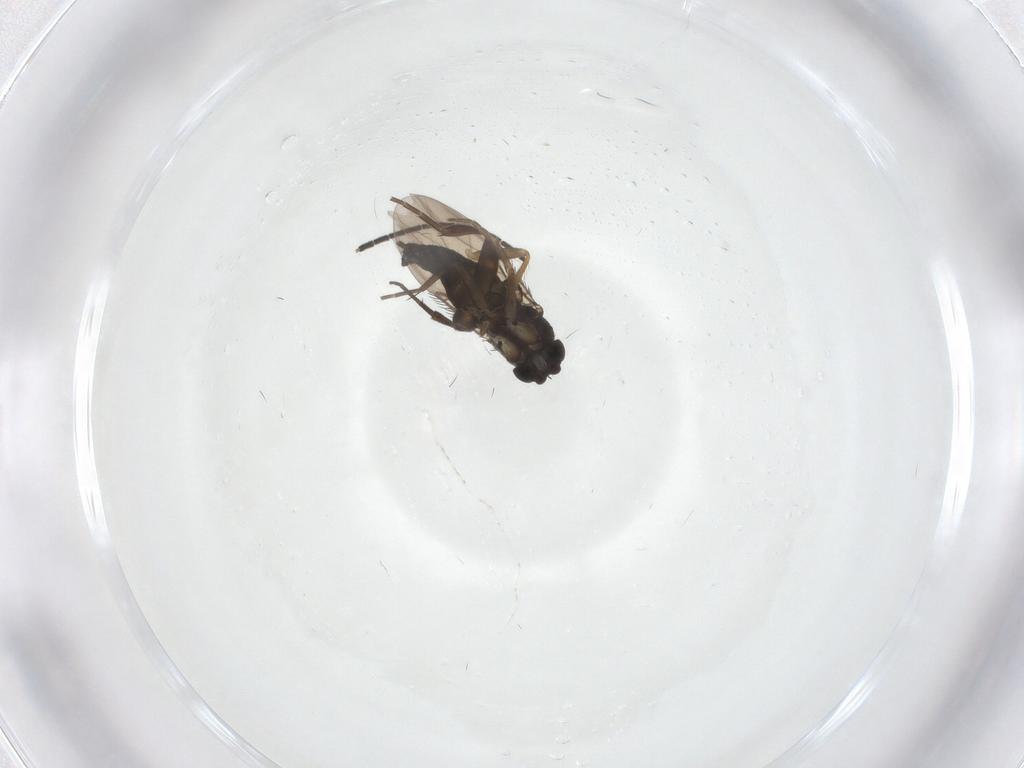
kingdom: Animalia
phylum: Arthropoda
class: Insecta
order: Diptera
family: Phoridae
